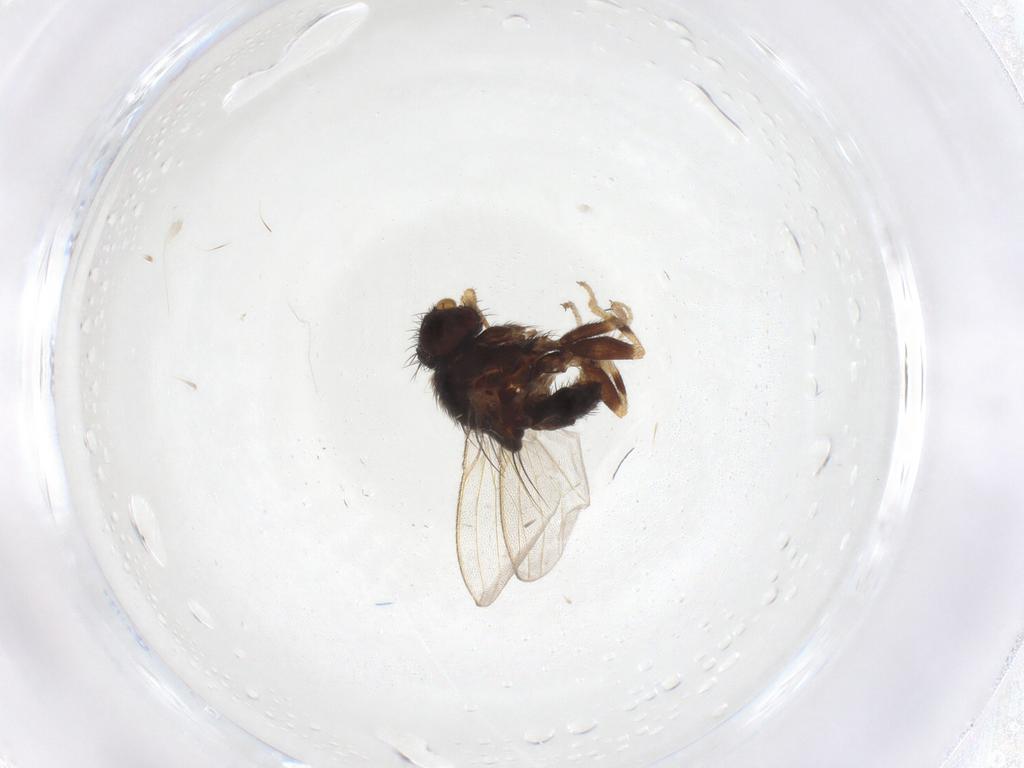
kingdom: Animalia
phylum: Arthropoda
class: Insecta
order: Diptera
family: Milichiidae
